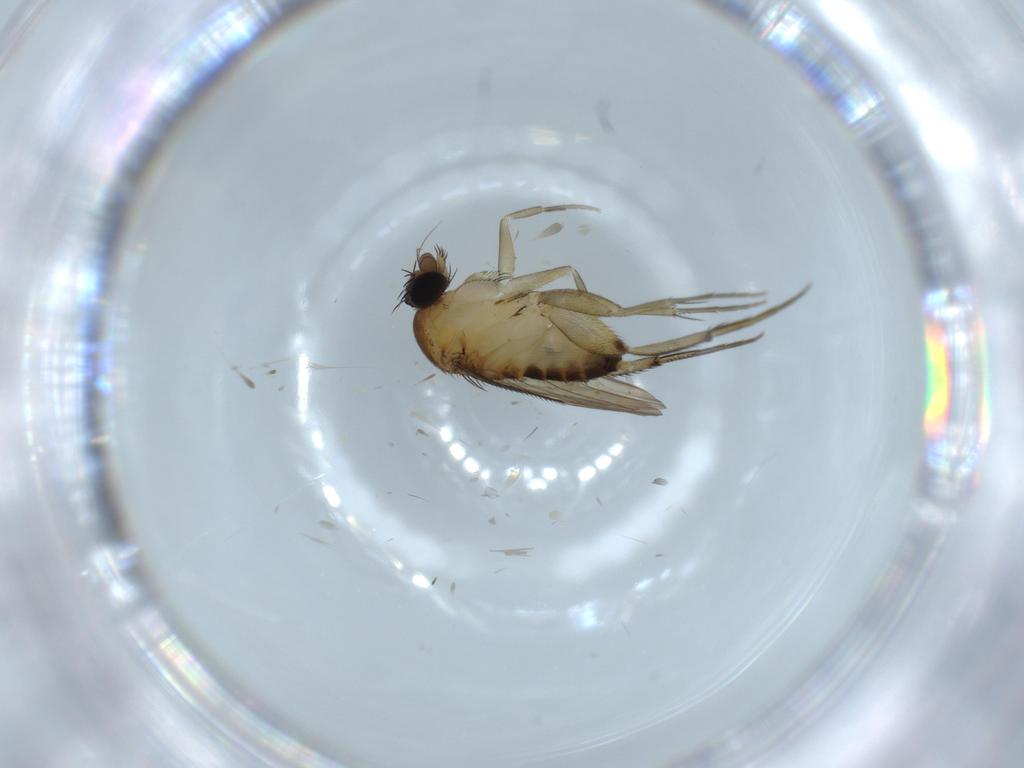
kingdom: Animalia
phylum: Arthropoda
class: Insecta
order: Diptera
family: Phoridae
